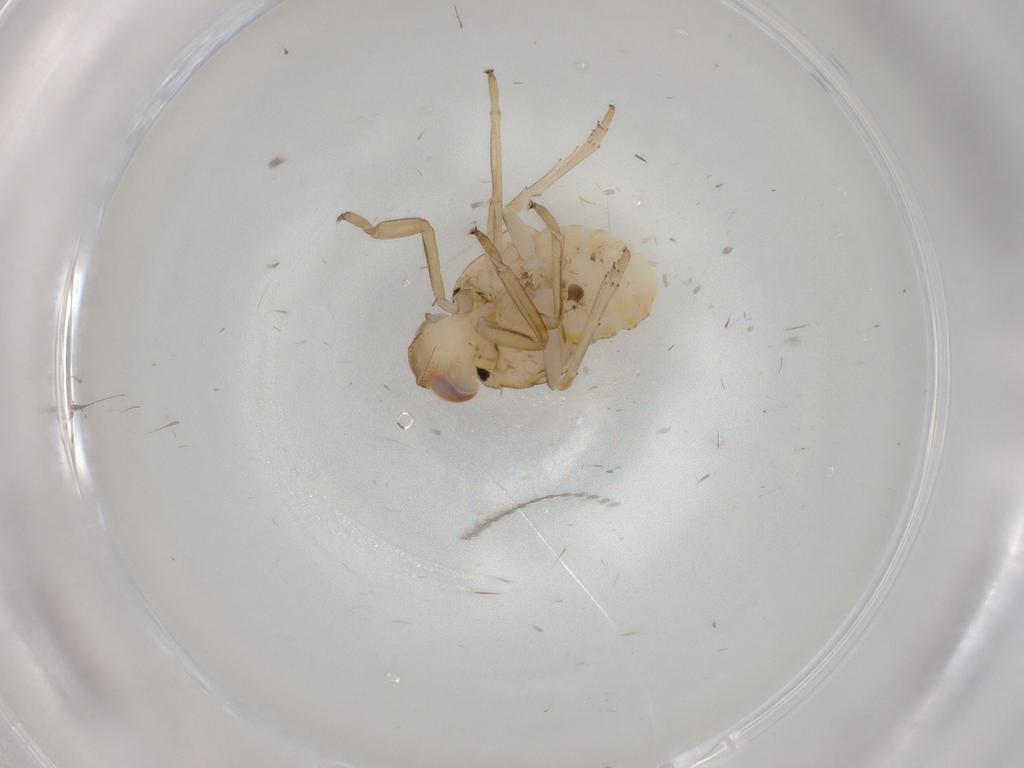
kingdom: Animalia
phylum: Arthropoda
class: Insecta
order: Hemiptera
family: Issidae
